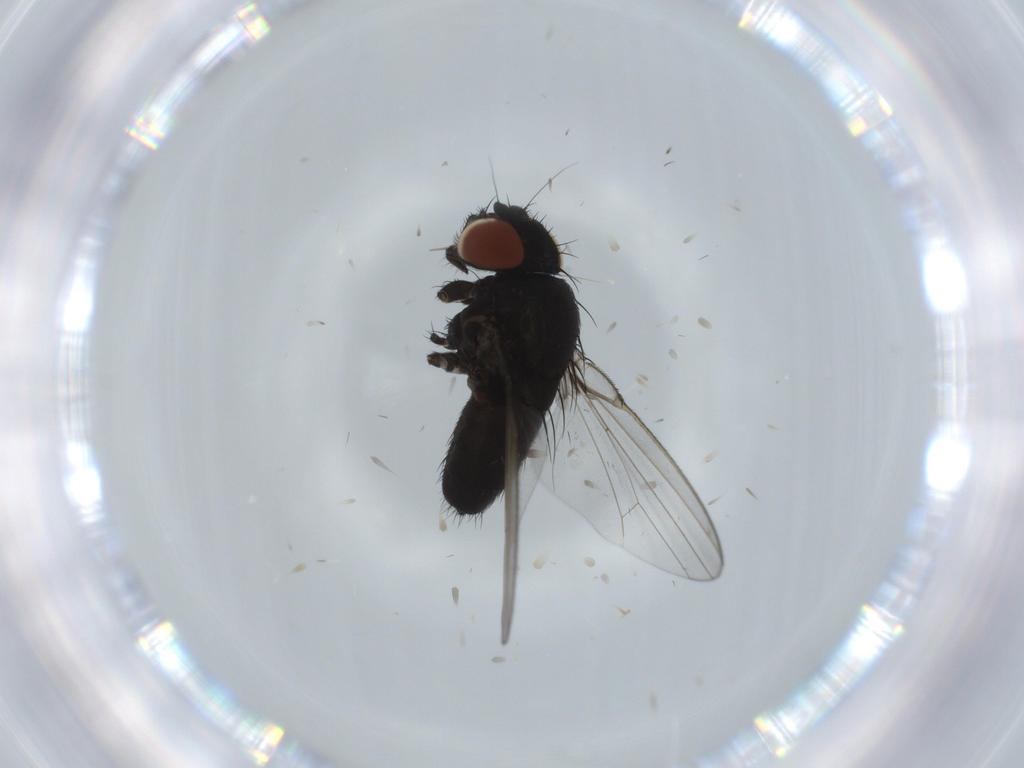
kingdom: Animalia
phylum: Arthropoda
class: Insecta
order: Diptera
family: Milichiidae
